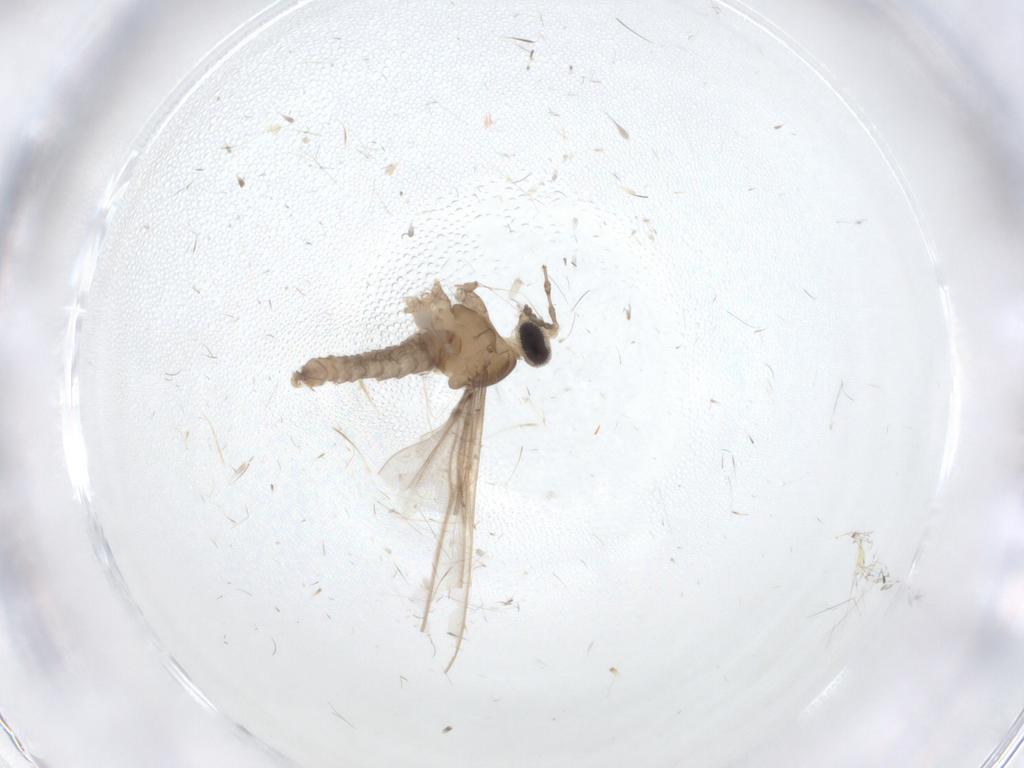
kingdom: Animalia
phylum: Arthropoda
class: Insecta
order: Diptera
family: Cecidomyiidae
